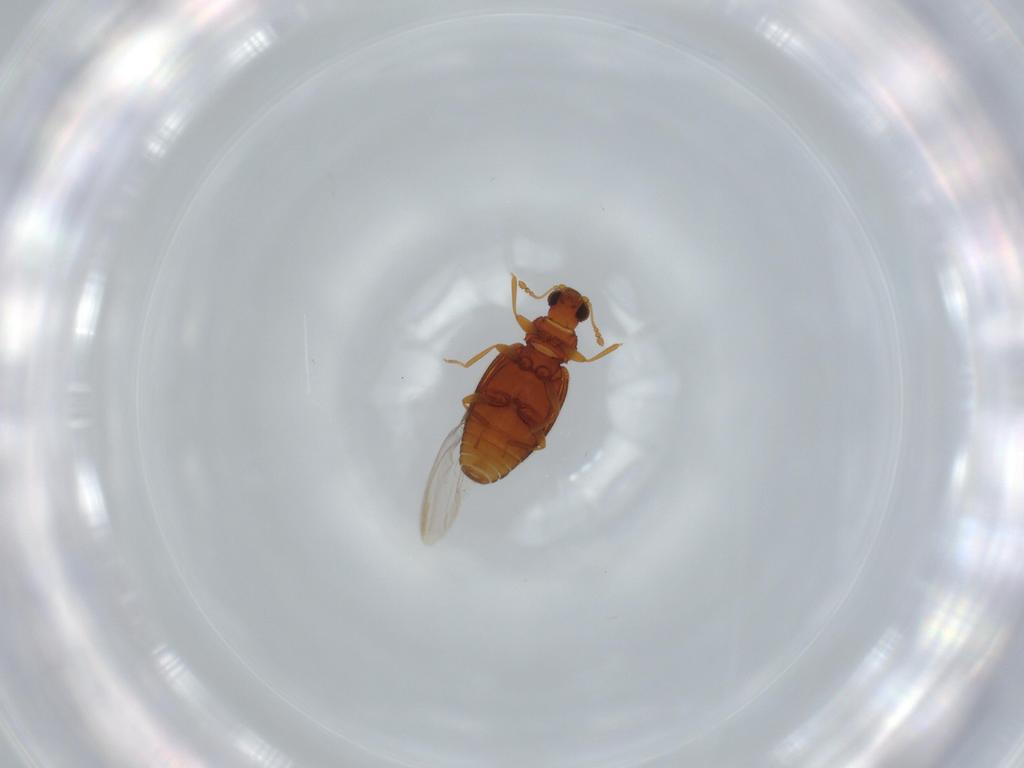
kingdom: Animalia
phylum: Arthropoda
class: Insecta
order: Coleoptera
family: Latridiidae
